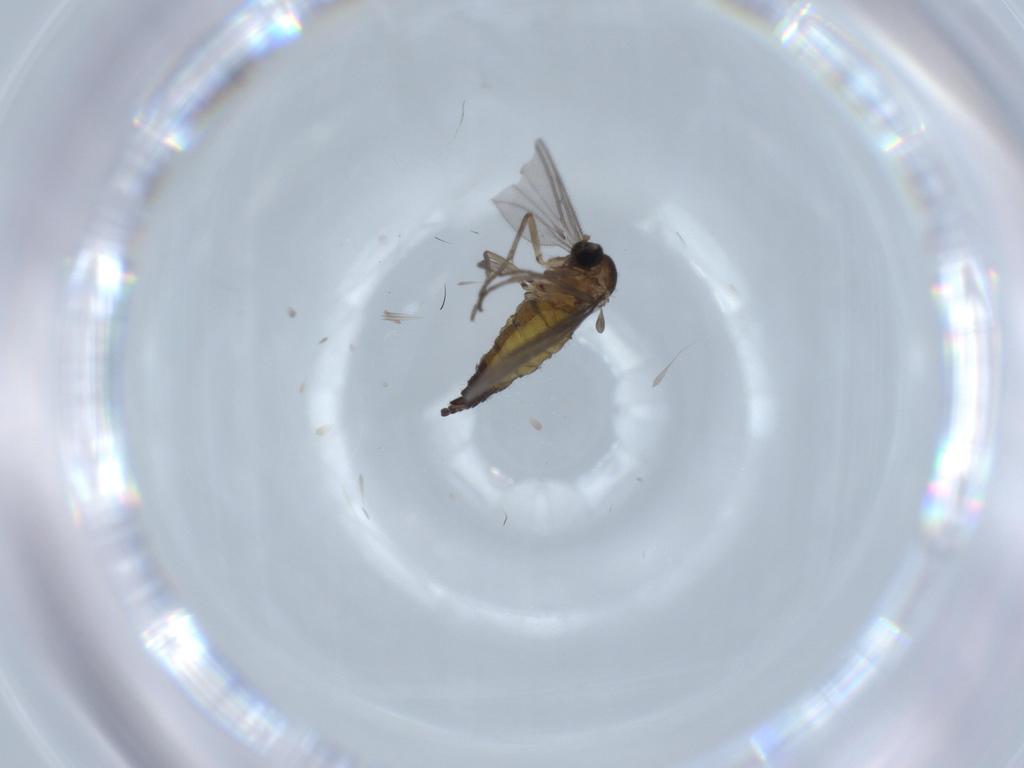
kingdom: Animalia
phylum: Arthropoda
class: Insecta
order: Diptera
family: Sciaridae
